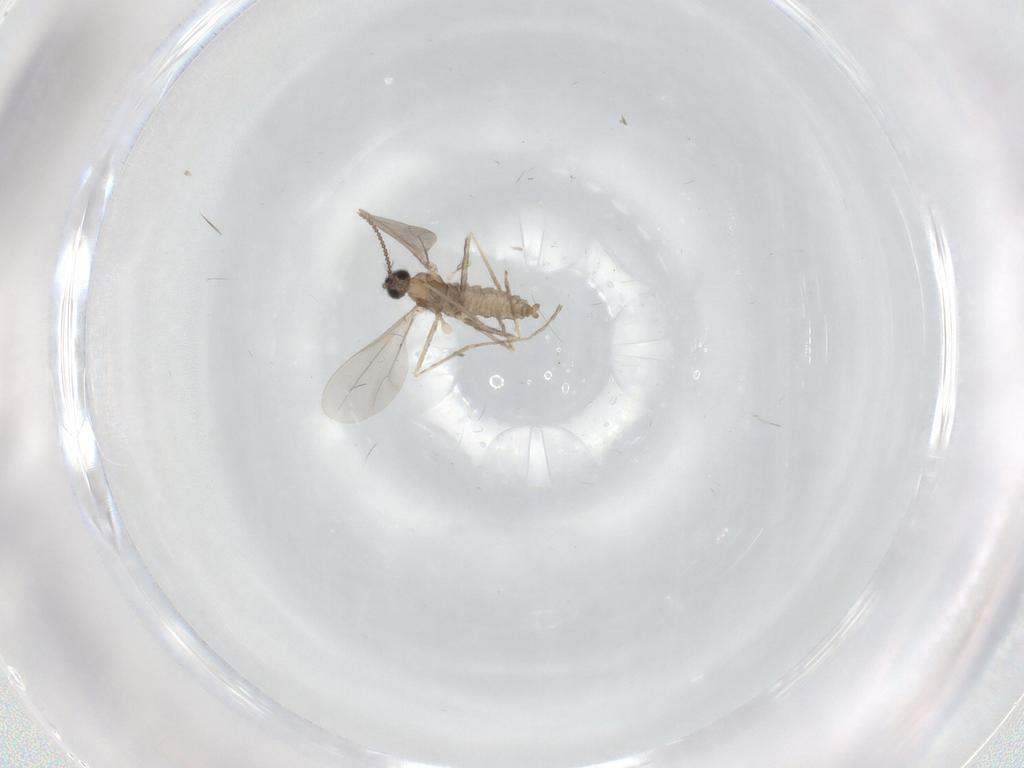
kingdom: Animalia
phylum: Arthropoda
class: Insecta
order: Diptera
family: Cecidomyiidae
